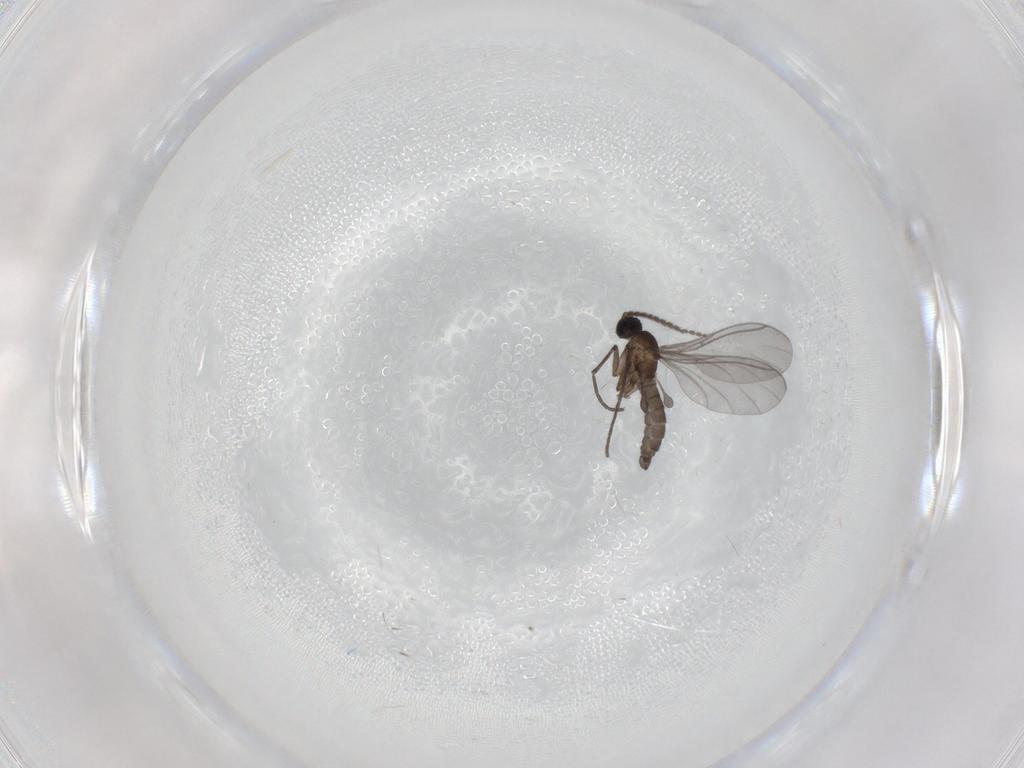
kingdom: Animalia
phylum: Arthropoda
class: Insecta
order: Diptera
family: Sciaridae
